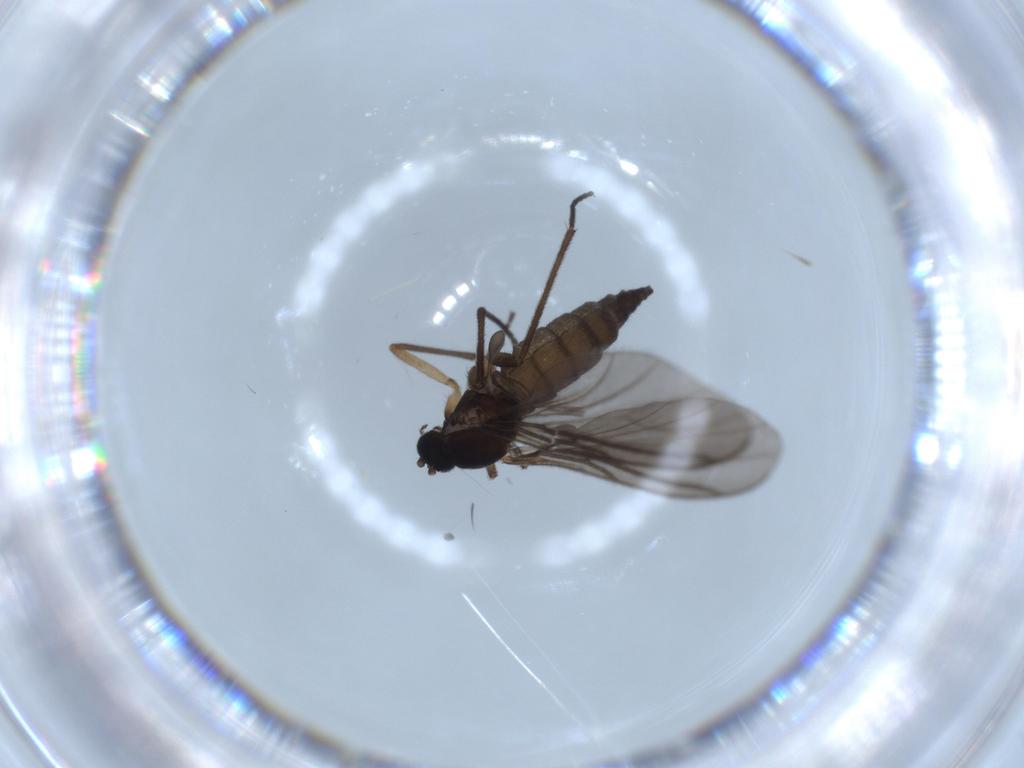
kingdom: Animalia
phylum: Arthropoda
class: Insecta
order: Diptera
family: Sciaridae
